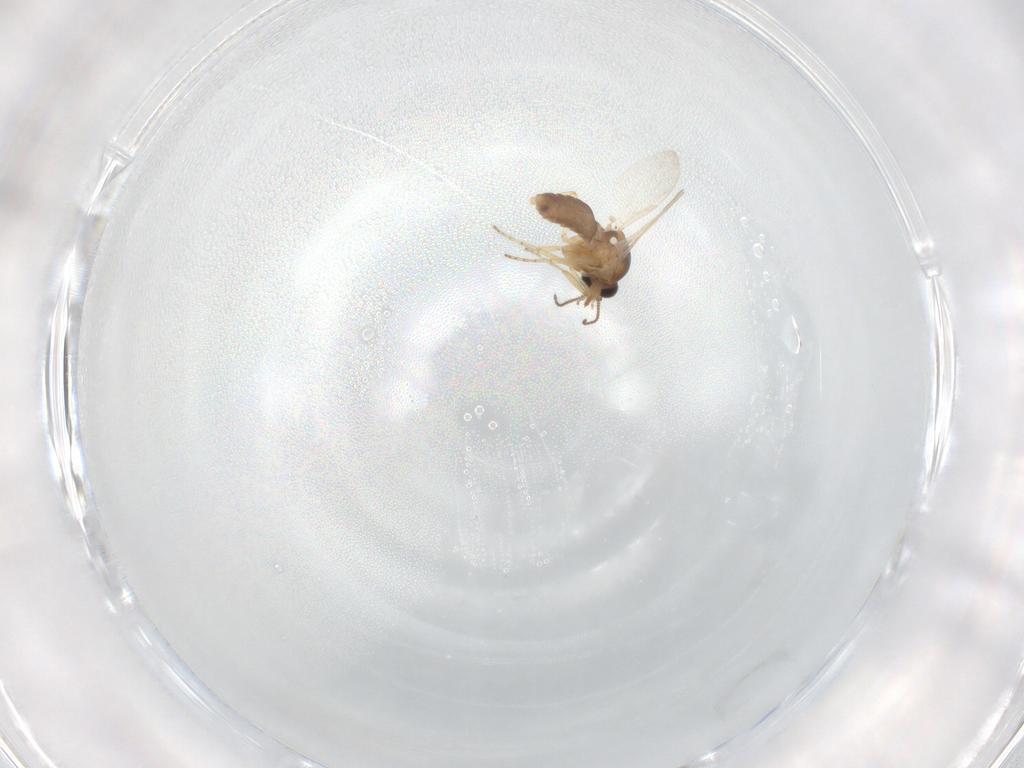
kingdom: Animalia
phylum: Arthropoda
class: Insecta
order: Diptera
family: Ceratopogonidae
